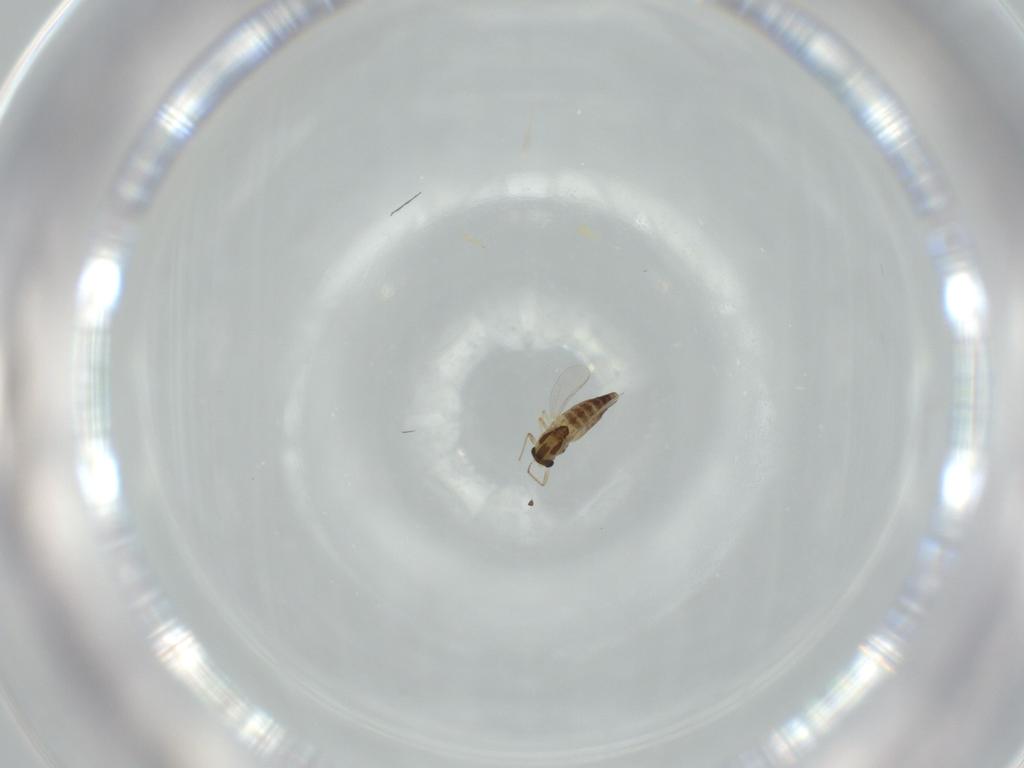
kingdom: Animalia
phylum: Arthropoda
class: Insecta
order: Diptera
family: Chironomidae
